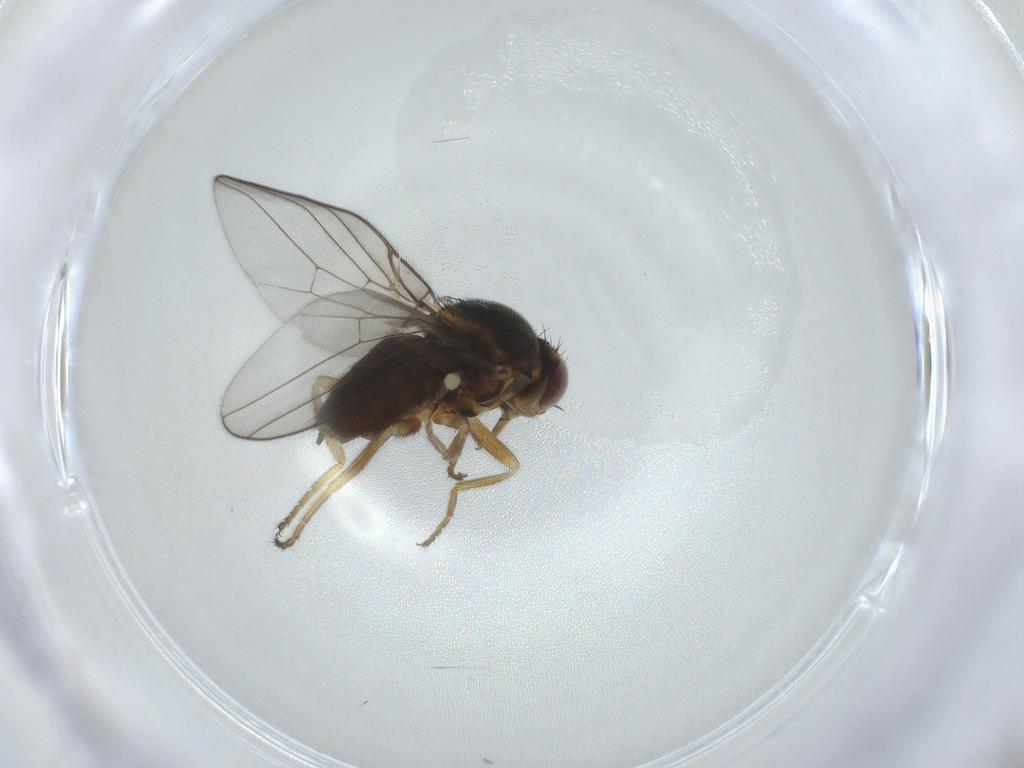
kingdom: Animalia
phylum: Arthropoda
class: Insecta
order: Diptera
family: Chloropidae
